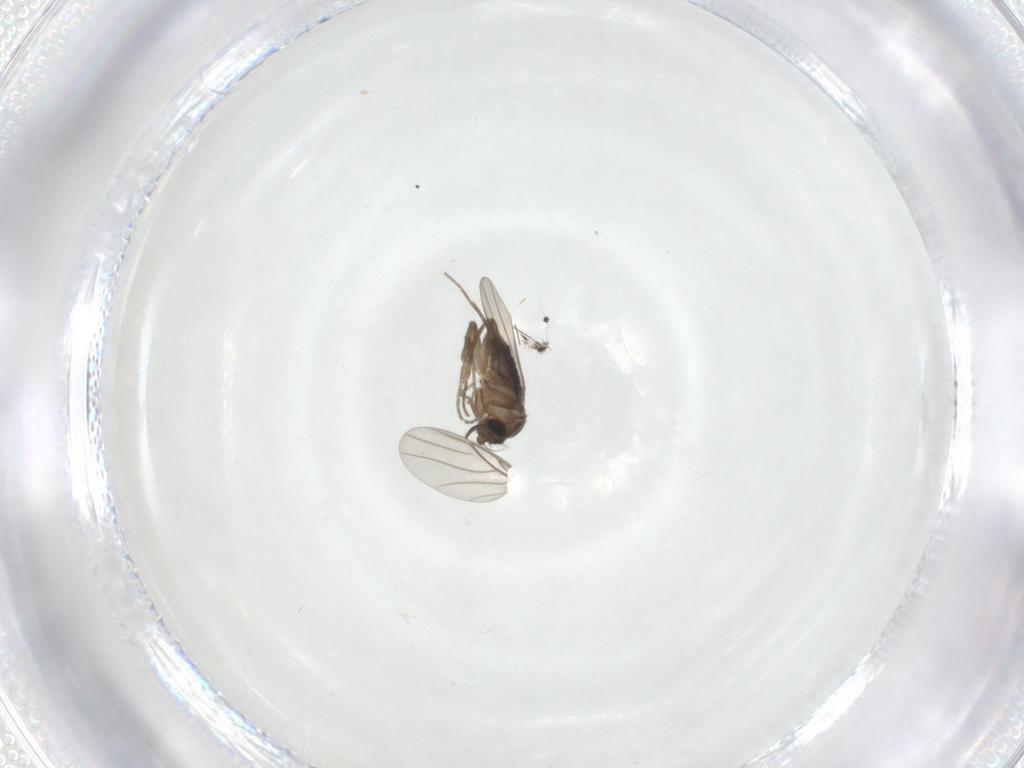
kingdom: Animalia
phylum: Arthropoda
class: Insecta
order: Diptera
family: Phoridae
